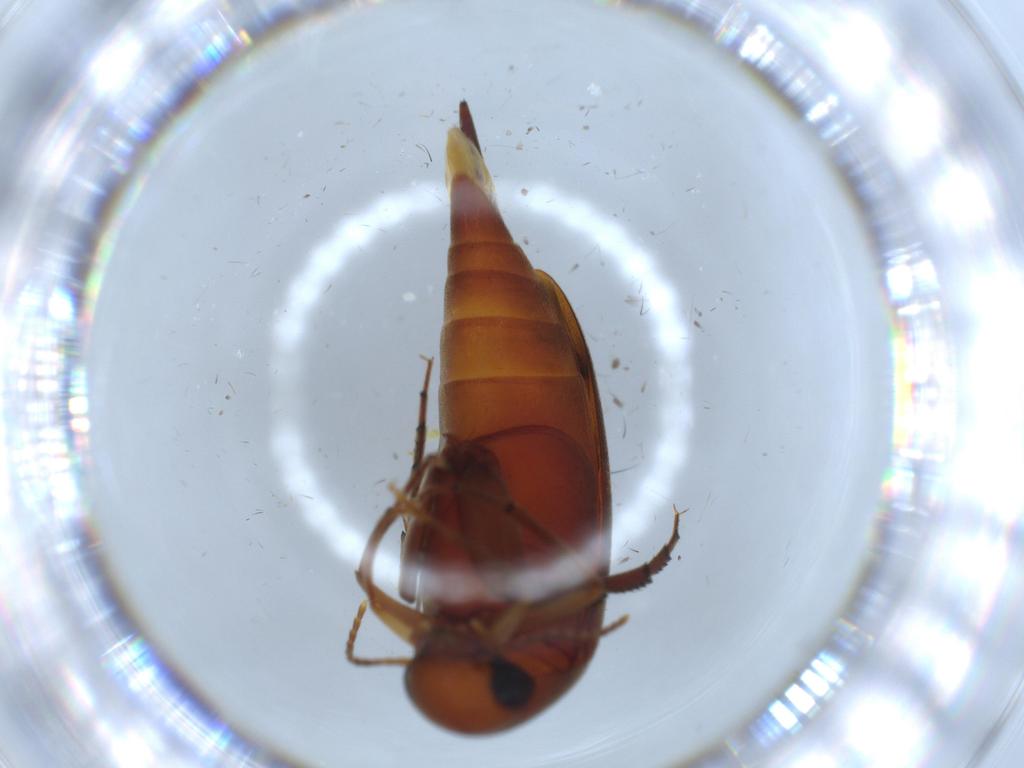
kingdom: Animalia
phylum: Arthropoda
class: Insecta
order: Coleoptera
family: Mordellidae
